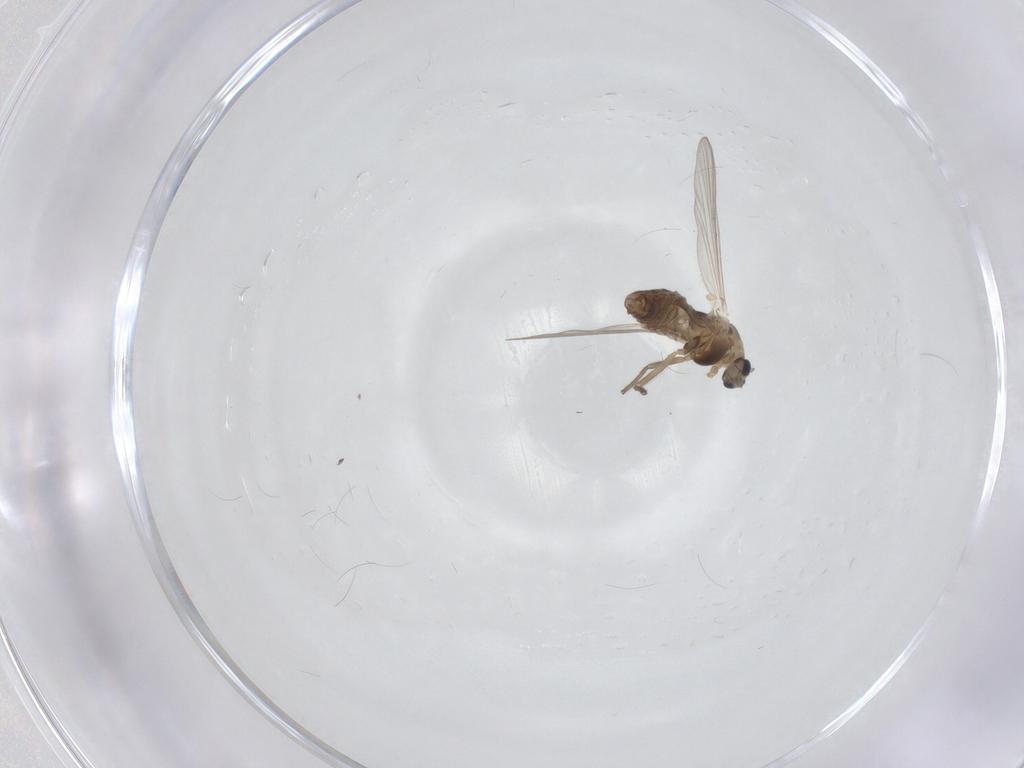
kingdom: Animalia
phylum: Arthropoda
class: Insecta
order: Diptera
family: Chironomidae
